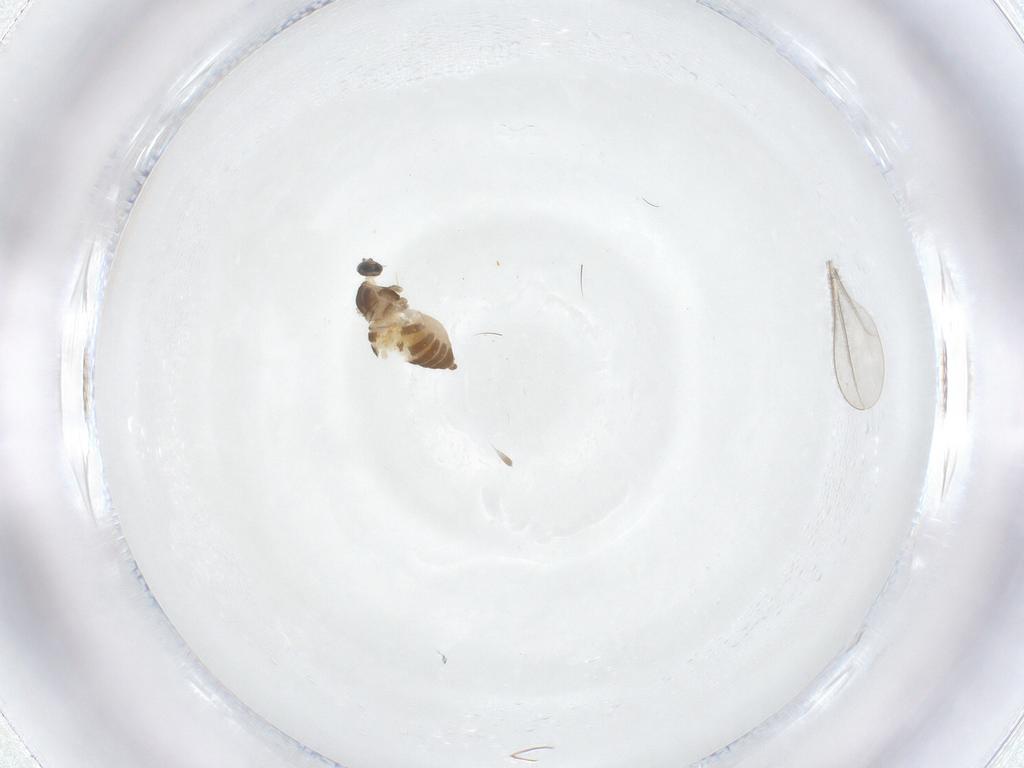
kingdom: Animalia
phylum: Arthropoda
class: Insecta
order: Diptera
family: Cecidomyiidae
